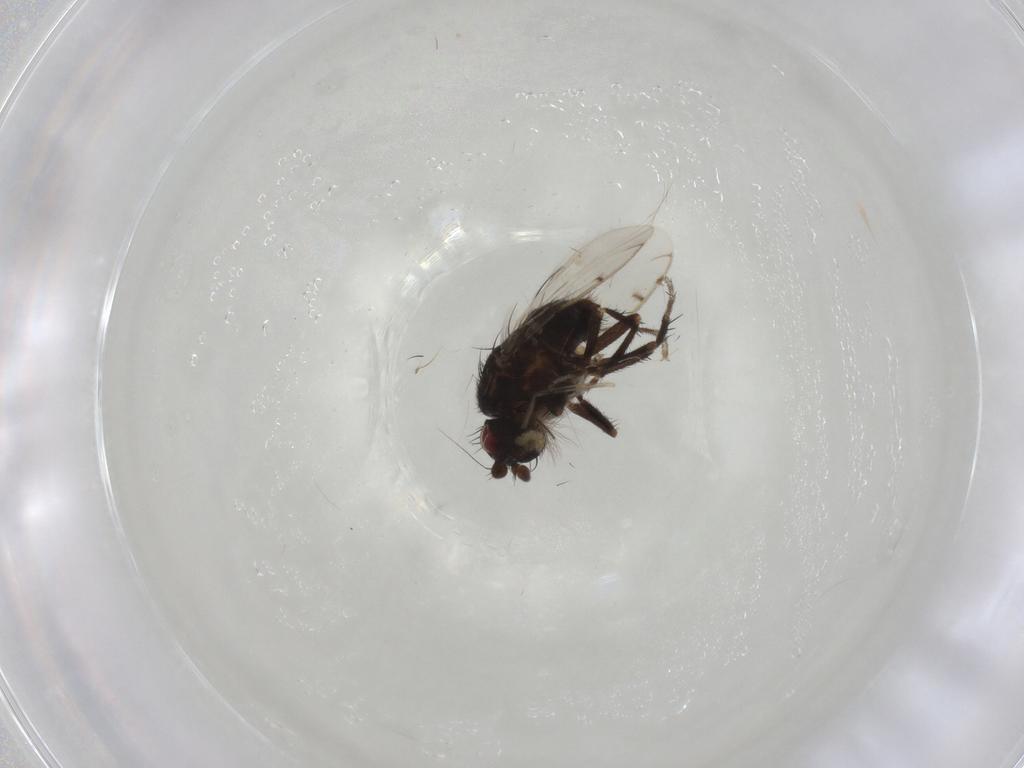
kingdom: Animalia
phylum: Arthropoda
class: Insecta
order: Diptera
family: Sphaeroceridae
